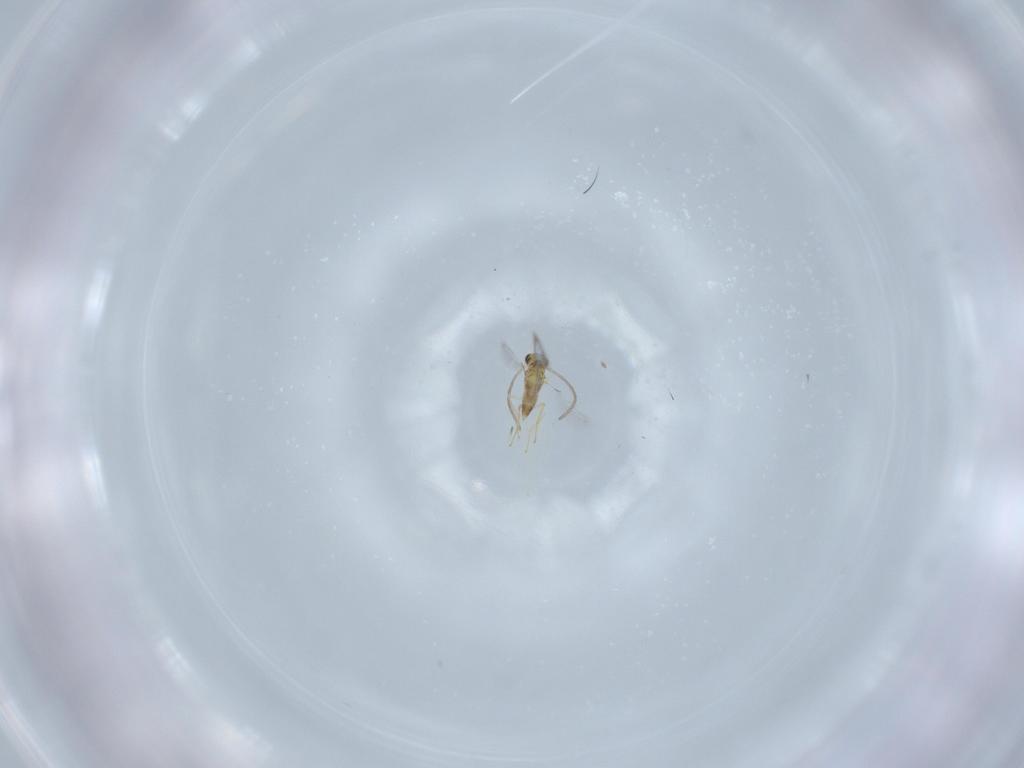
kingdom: Animalia
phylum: Arthropoda
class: Insecta
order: Hymenoptera
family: Mymaridae
